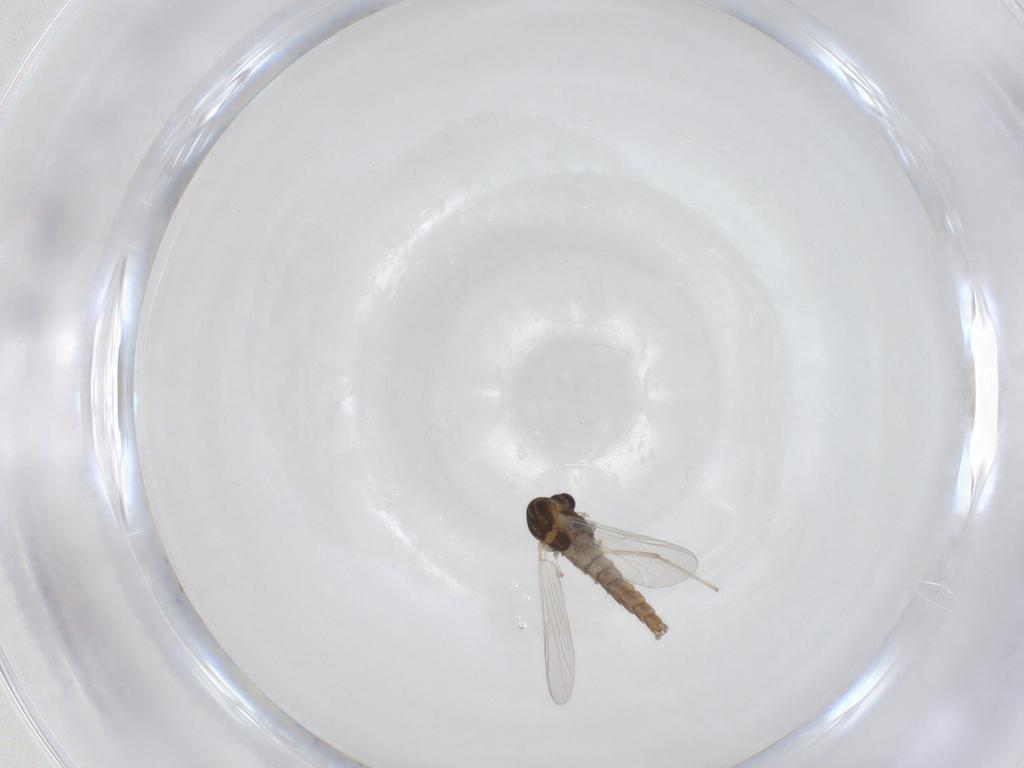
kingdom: Animalia
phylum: Arthropoda
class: Insecta
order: Diptera
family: Chironomidae
